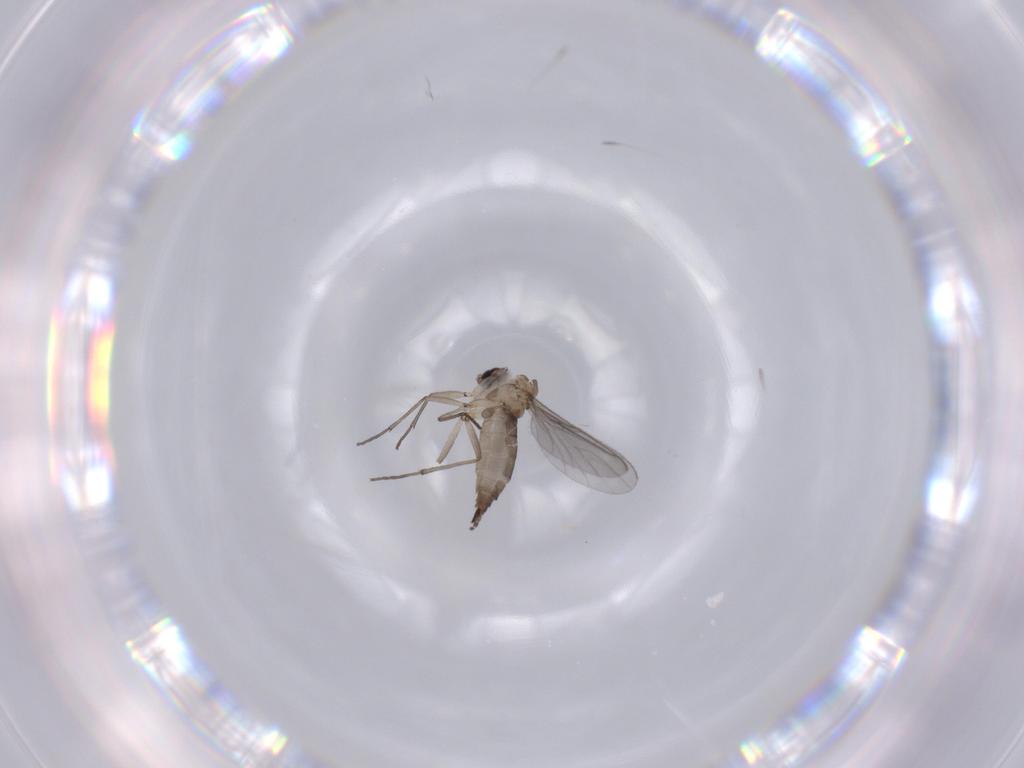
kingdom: Animalia
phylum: Arthropoda
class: Insecta
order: Diptera
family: Sciaridae
